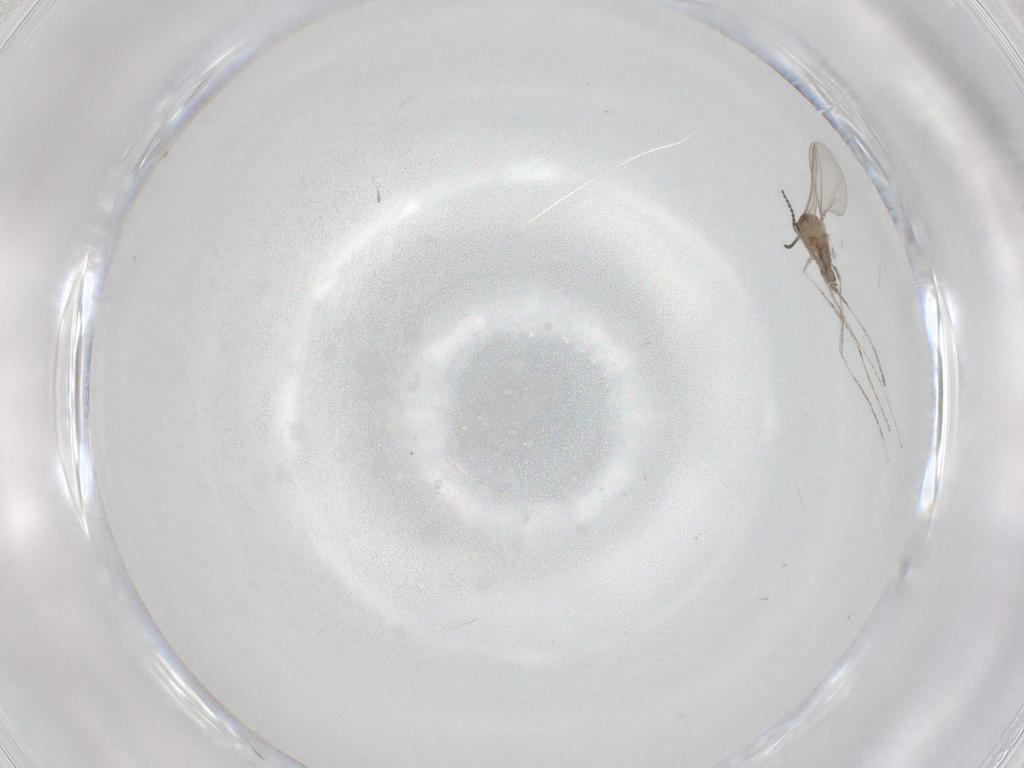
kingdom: Animalia
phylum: Arthropoda
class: Insecta
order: Diptera
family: Cecidomyiidae
